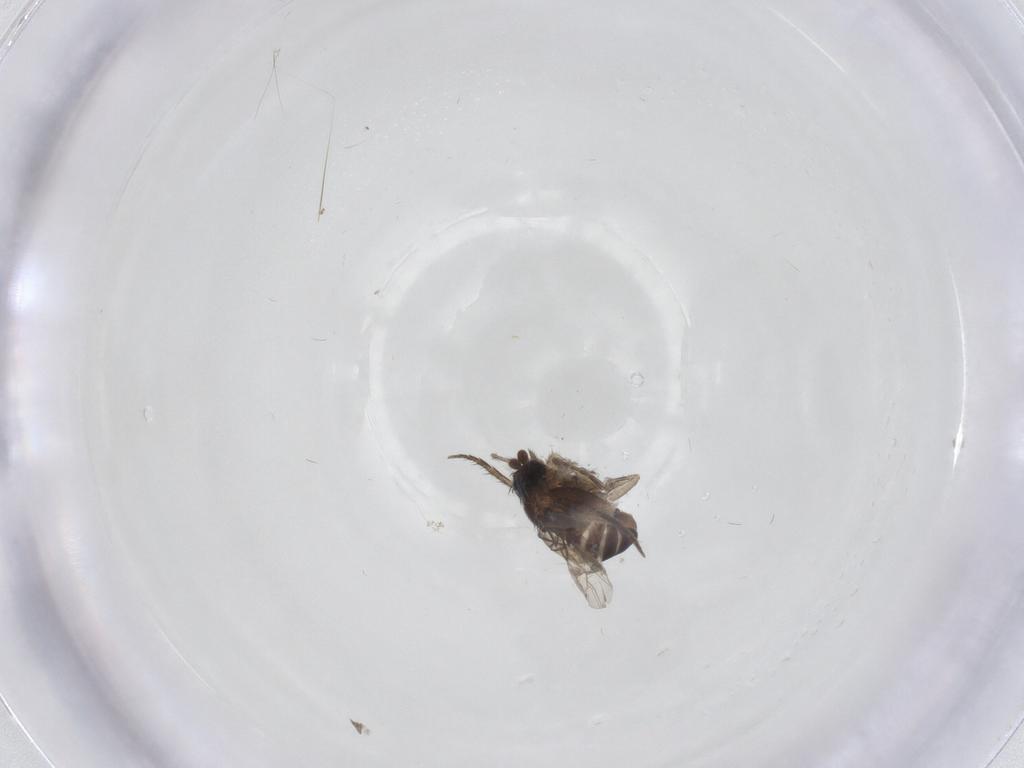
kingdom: Animalia
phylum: Arthropoda
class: Insecta
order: Diptera
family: Phoridae
